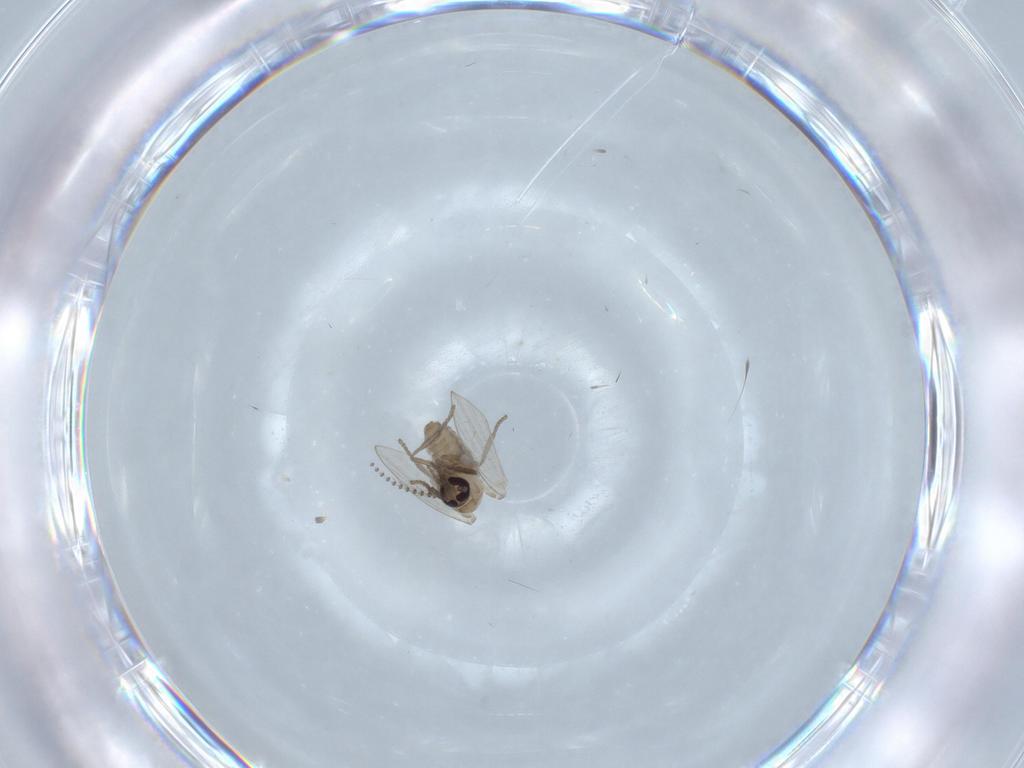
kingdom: Animalia
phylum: Arthropoda
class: Insecta
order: Diptera
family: Psychodidae
